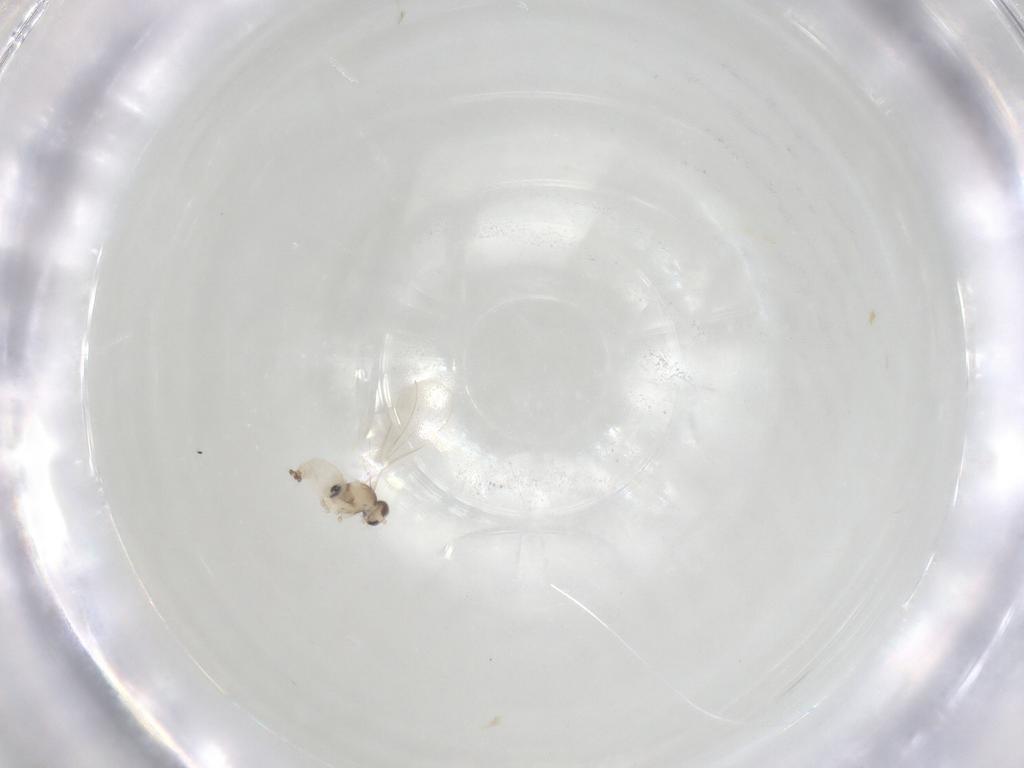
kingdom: Animalia
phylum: Arthropoda
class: Insecta
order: Diptera
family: Cecidomyiidae
